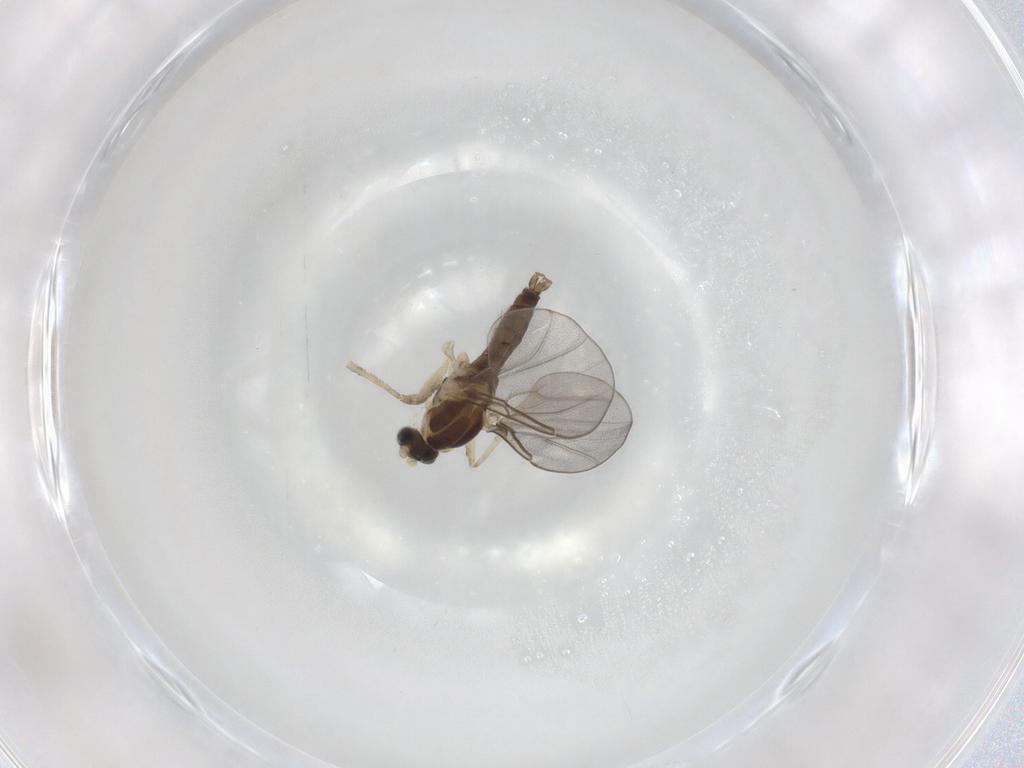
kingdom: Animalia
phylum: Arthropoda
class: Insecta
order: Diptera
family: Cecidomyiidae
